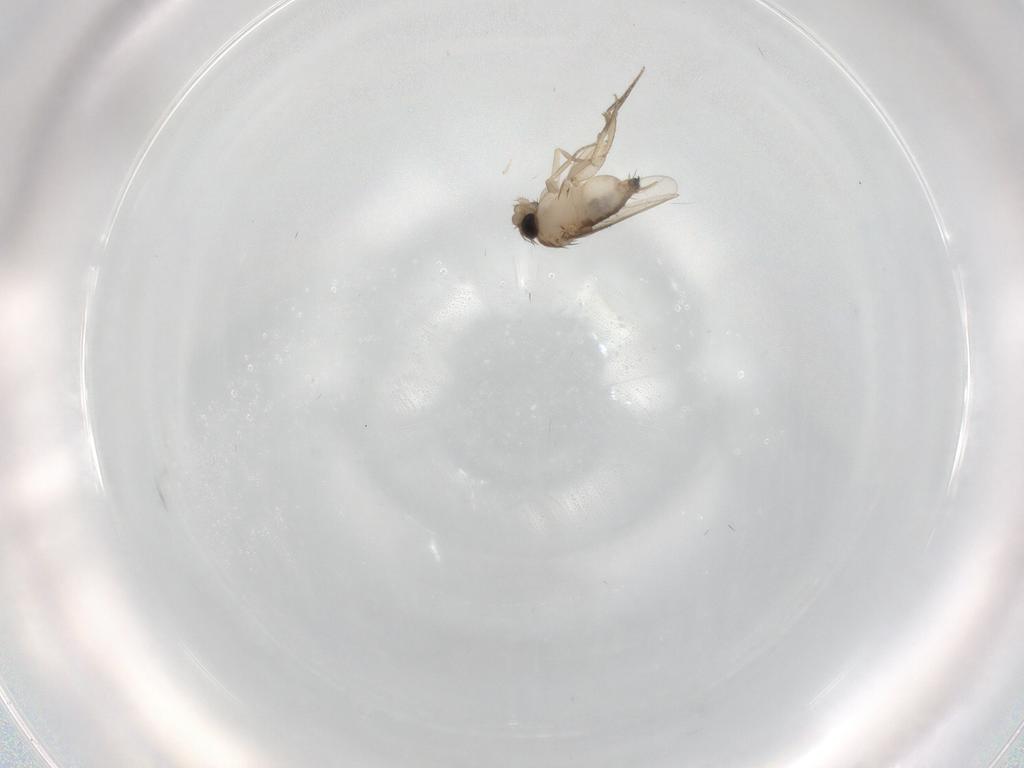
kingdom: Animalia
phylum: Arthropoda
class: Insecta
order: Diptera
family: Phoridae
